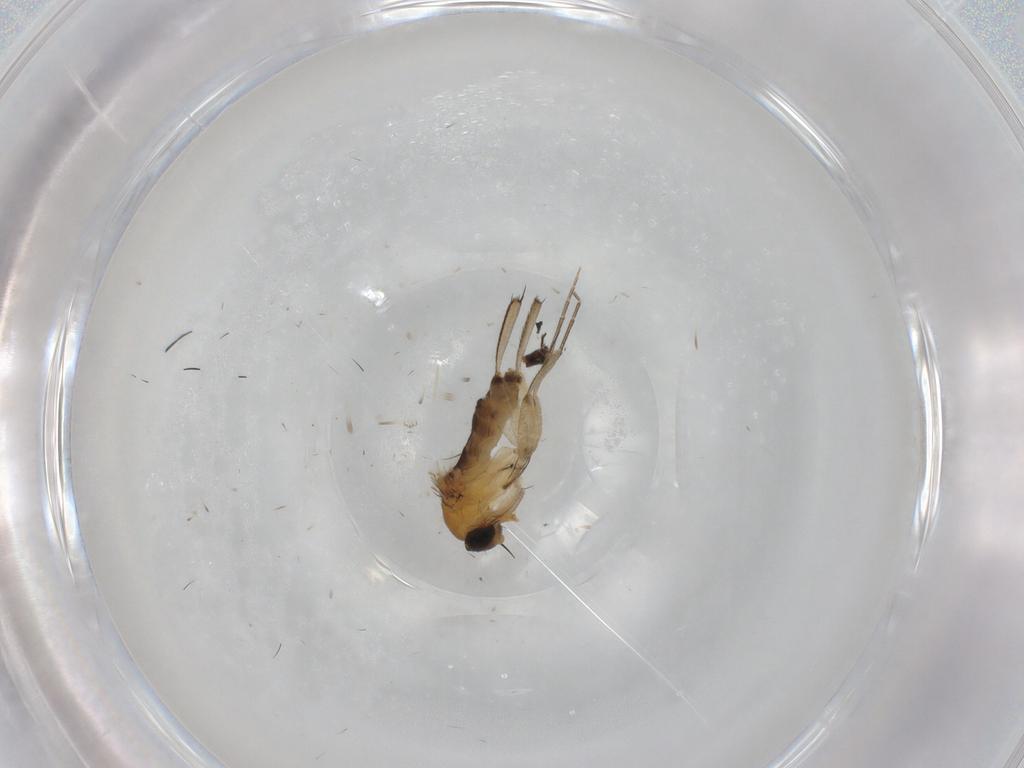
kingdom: Animalia
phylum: Arthropoda
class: Insecta
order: Diptera
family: Phoridae
